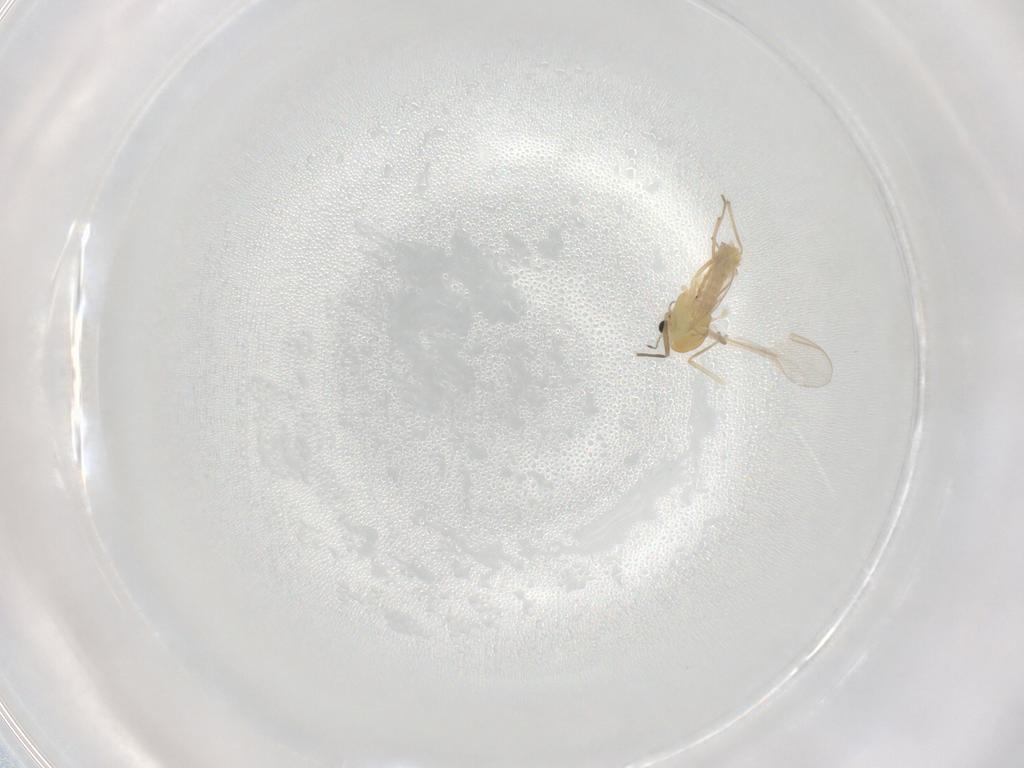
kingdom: Animalia
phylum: Arthropoda
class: Insecta
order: Diptera
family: Chironomidae
